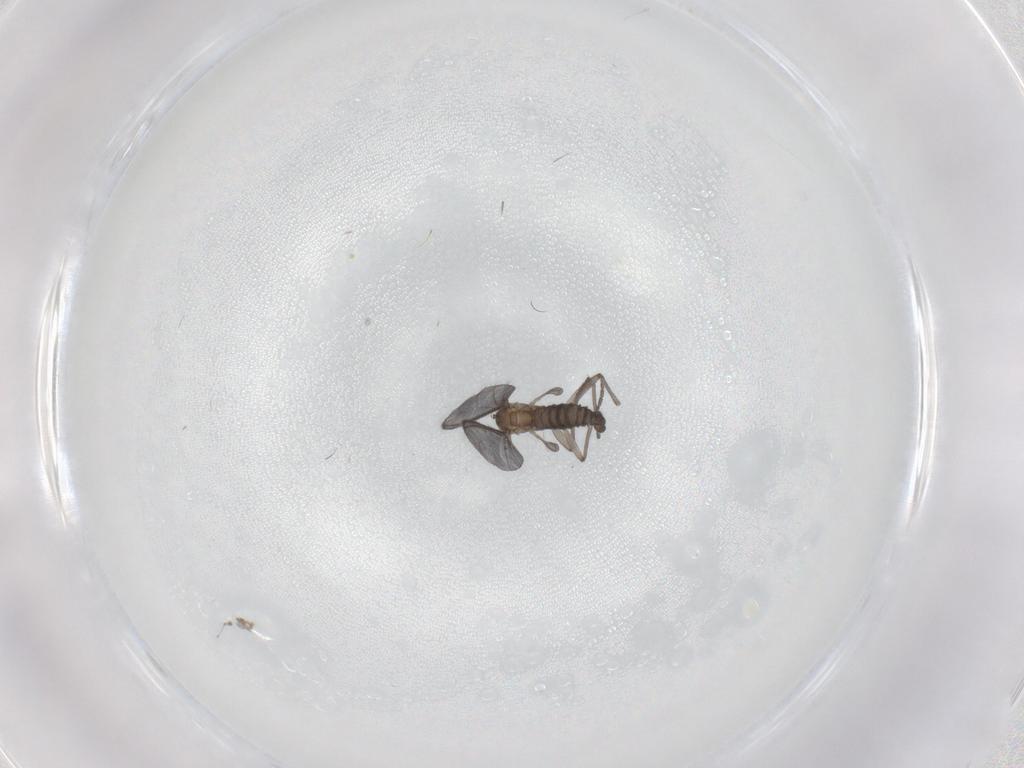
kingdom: Animalia
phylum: Arthropoda
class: Insecta
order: Diptera
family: Sciaridae
